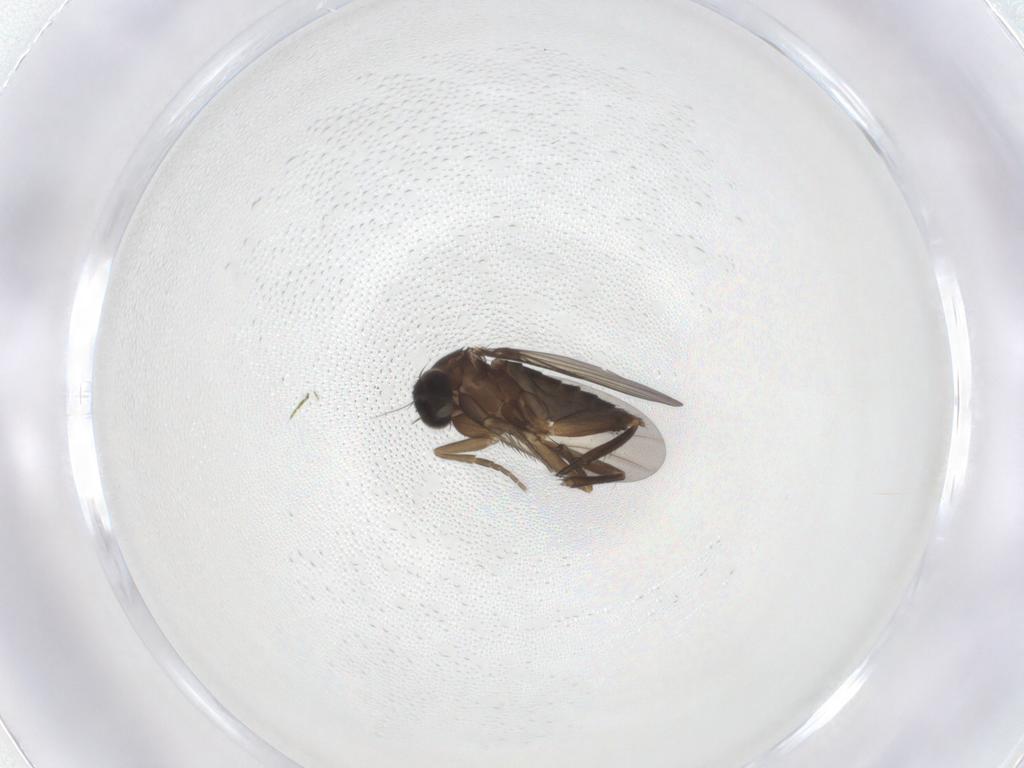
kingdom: Animalia
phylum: Arthropoda
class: Insecta
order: Diptera
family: Phoridae
